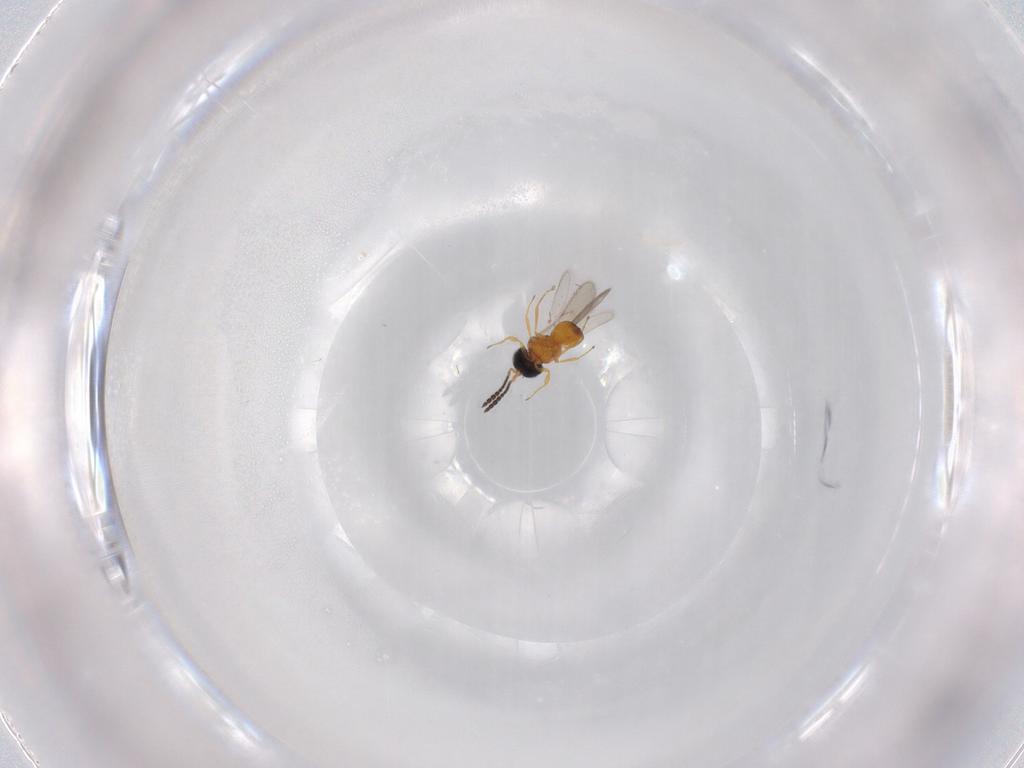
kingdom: Animalia
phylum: Arthropoda
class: Insecta
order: Hymenoptera
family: Scelionidae
